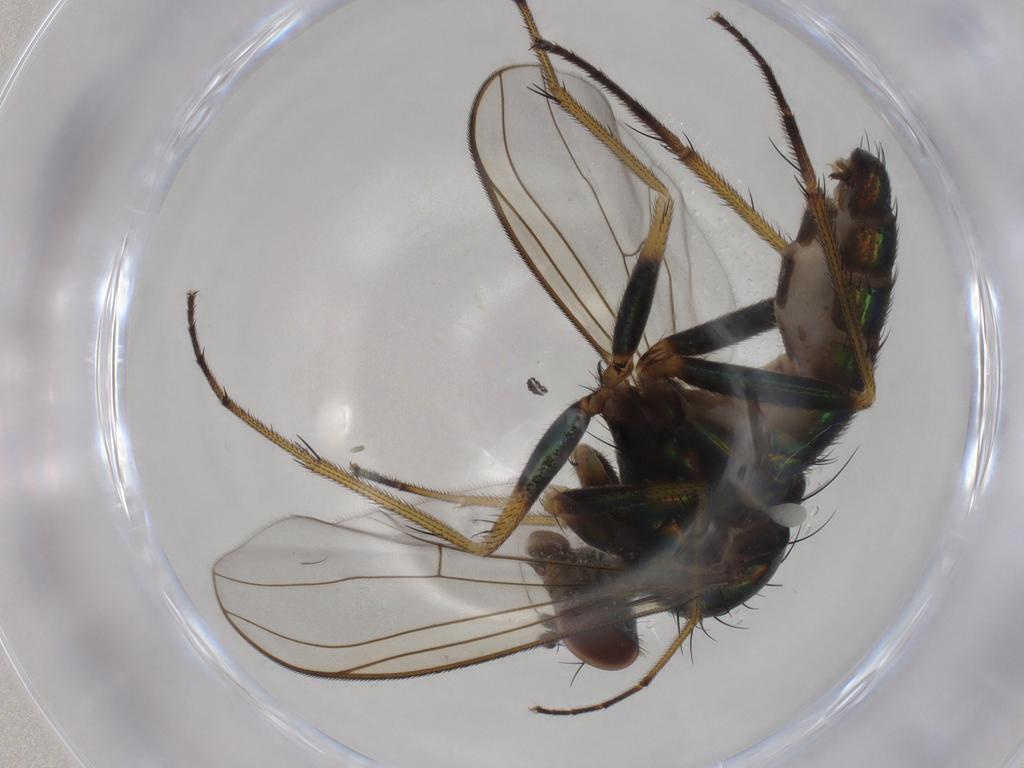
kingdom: Animalia
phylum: Arthropoda
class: Insecta
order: Diptera
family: Dolichopodidae
